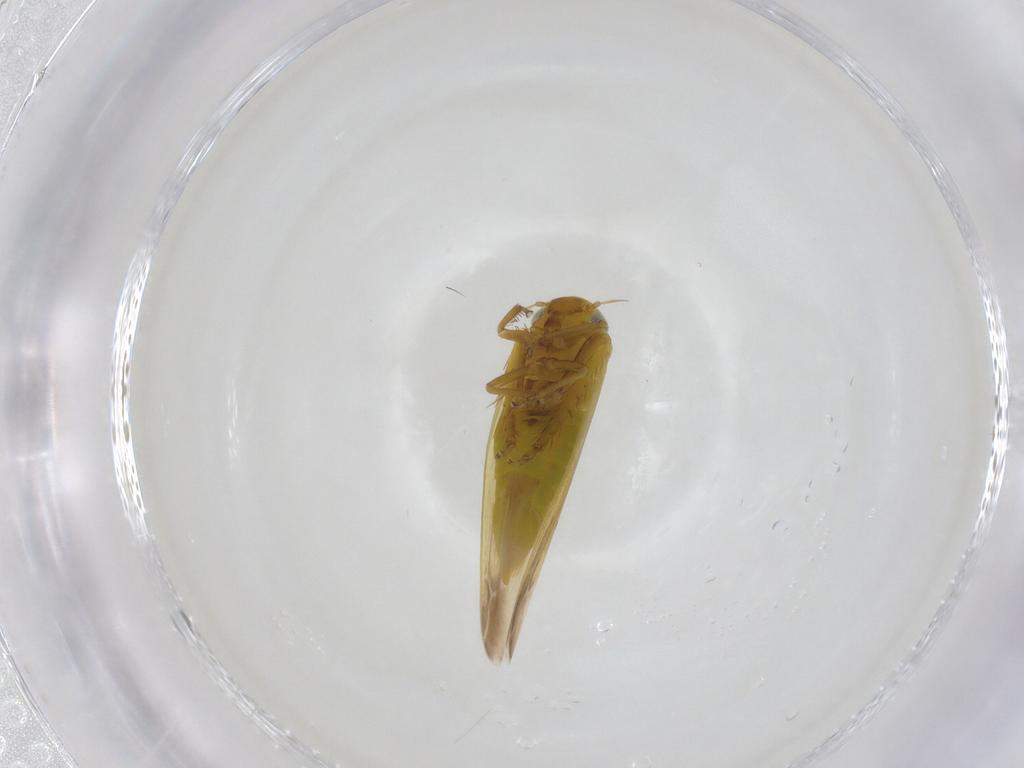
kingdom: Animalia
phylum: Arthropoda
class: Insecta
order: Hemiptera
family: Cicadellidae
